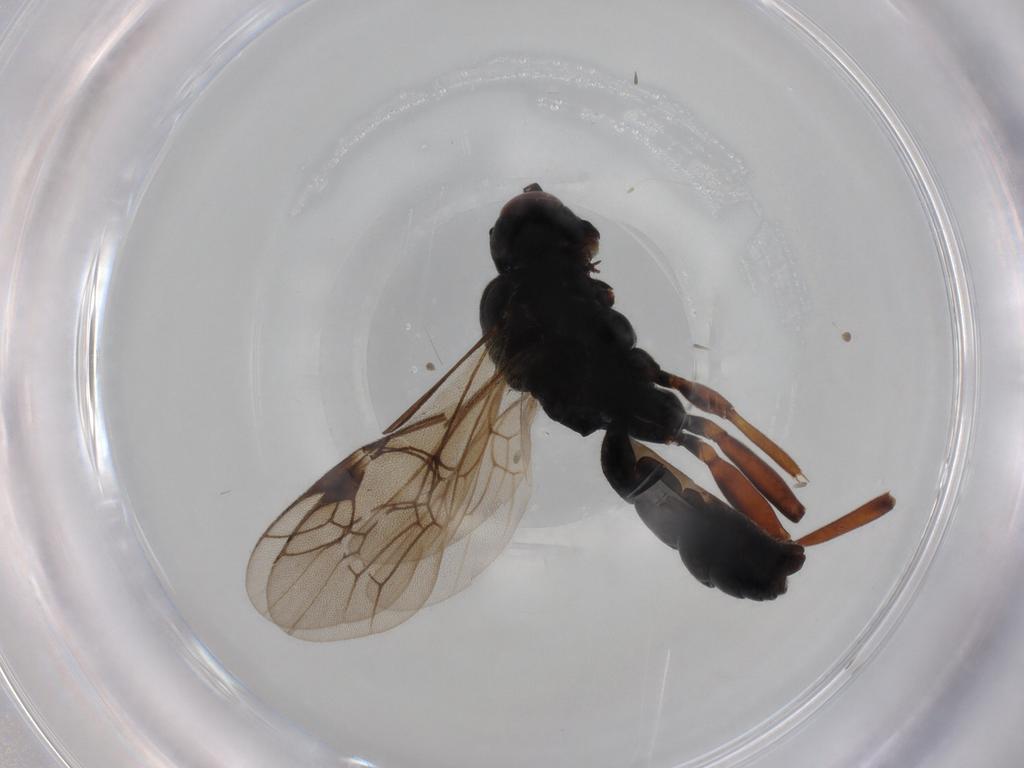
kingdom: Animalia
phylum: Arthropoda
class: Insecta
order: Hymenoptera
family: Ichneumonidae
